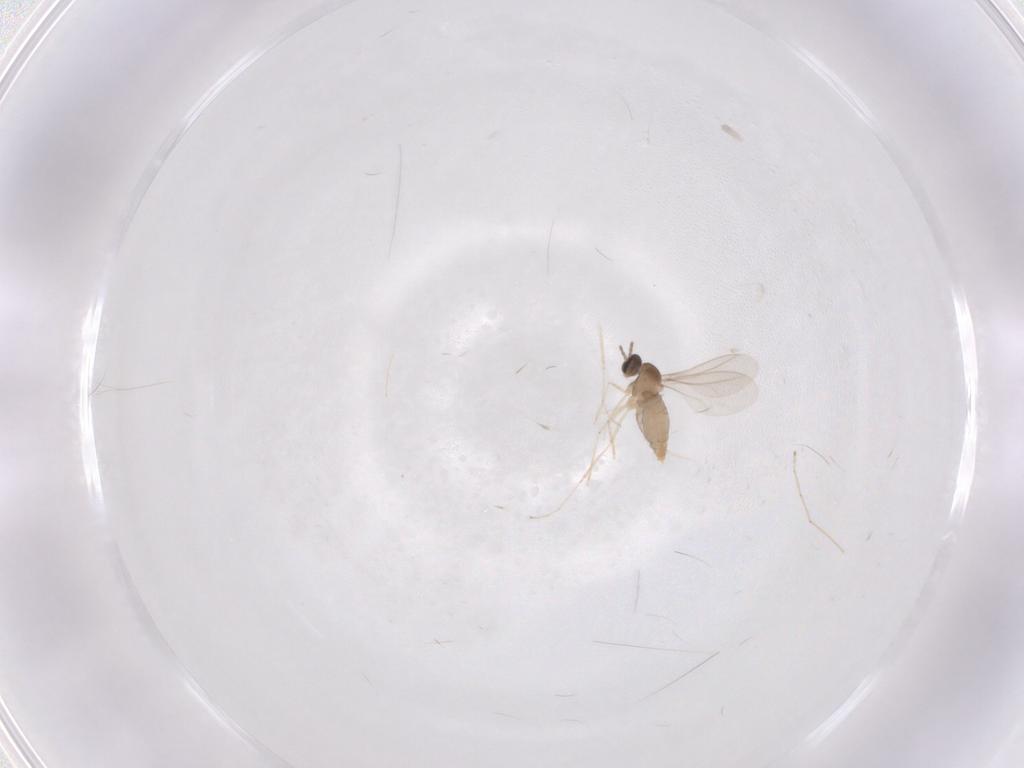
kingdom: Animalia
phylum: Arthropoda
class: Insecta
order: Diptera
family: Cecidomyiidae
